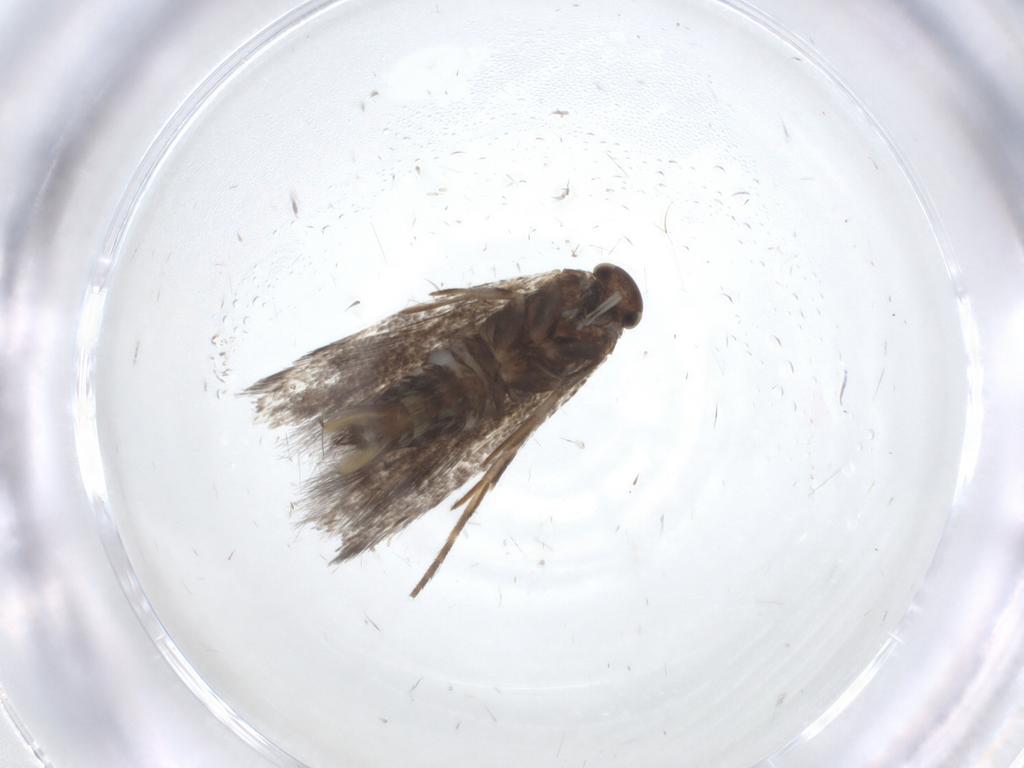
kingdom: Animalia
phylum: Arthropoda
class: Insecta
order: Lepidoptera
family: Elachistidae
